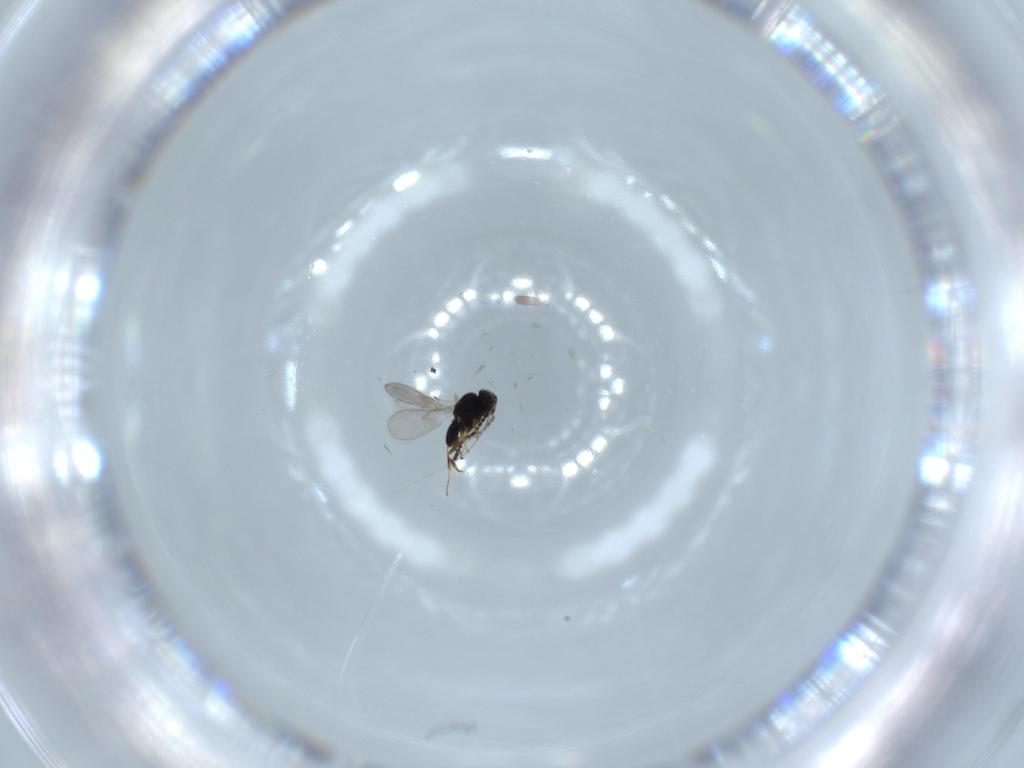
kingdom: Animalia
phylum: Arthropoda
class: Insecta
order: Hymenoptera
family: Scelionidae
